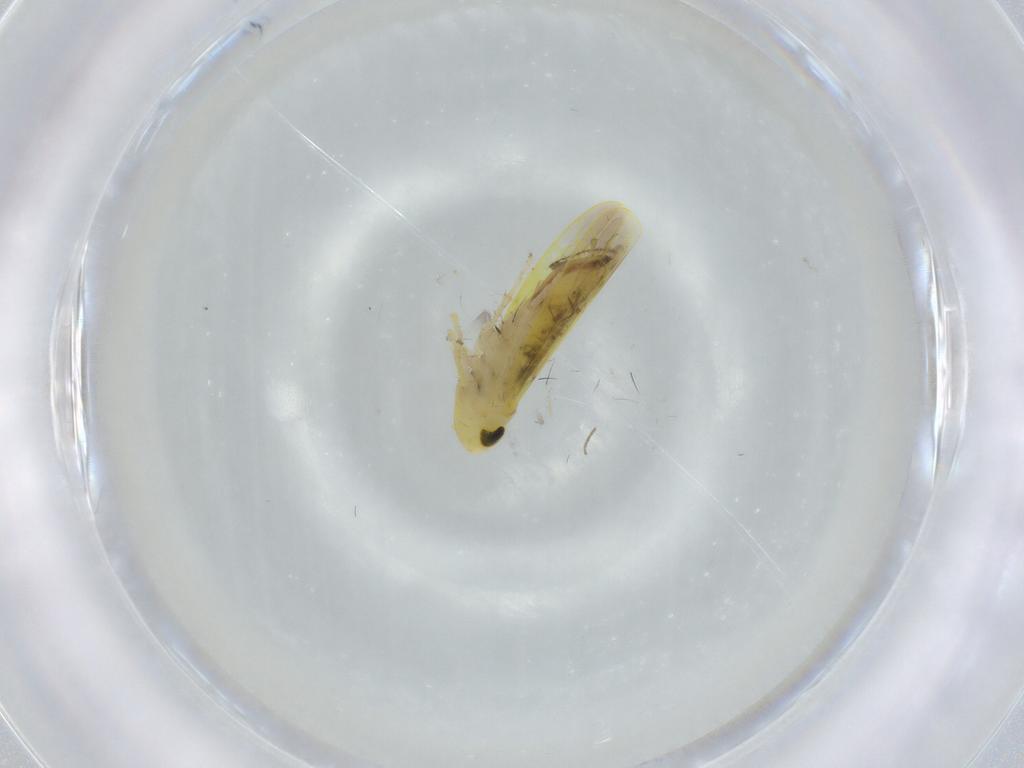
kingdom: Animalia
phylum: Arthropoda
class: Insecta
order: Hemiptera
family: Cicadellidae
